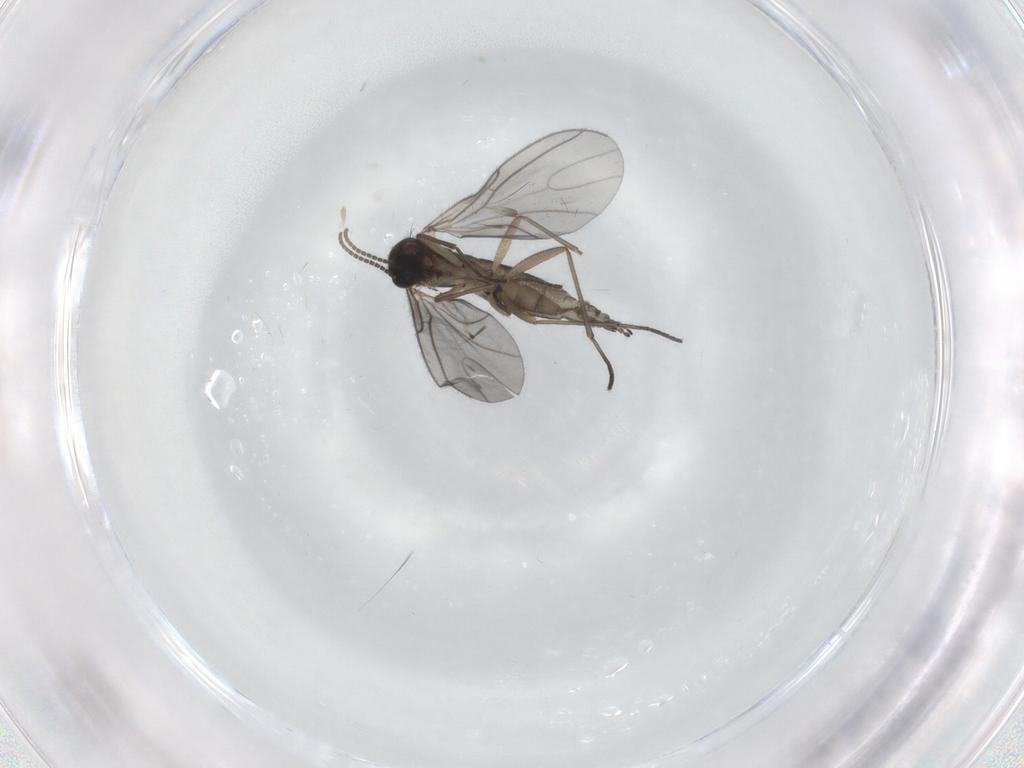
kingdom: Animalia
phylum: Arthropoda
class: Insecta
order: Diptera
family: Sciaridae
